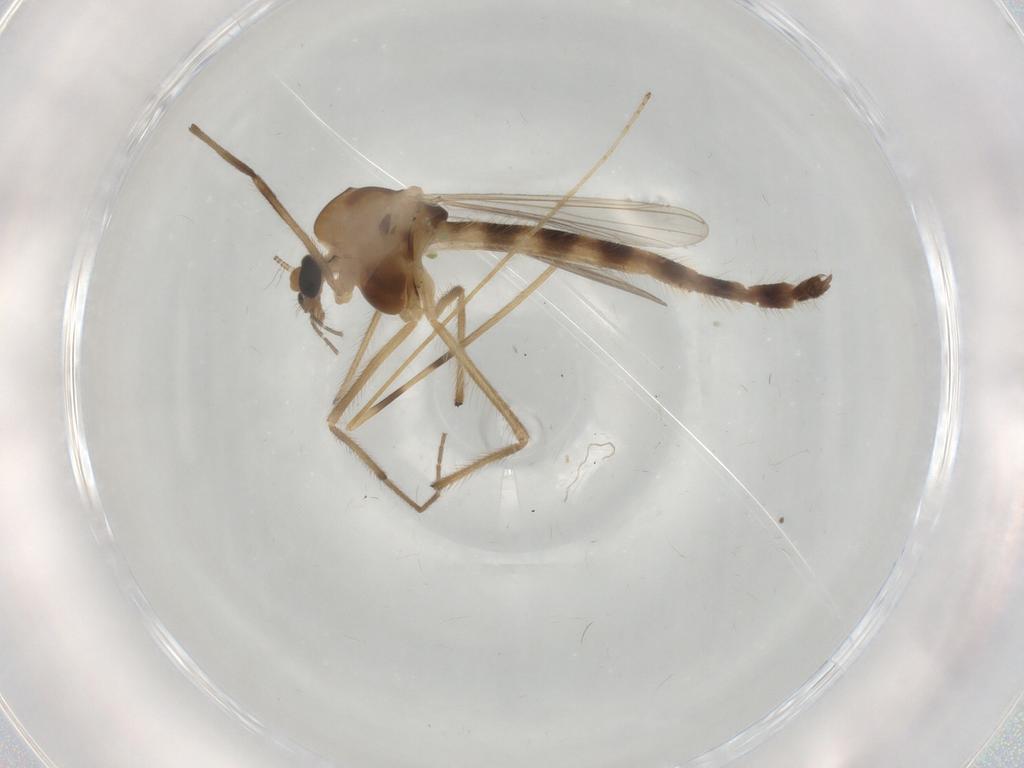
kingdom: Animalia
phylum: Arthropoda
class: Insecta
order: Diptera
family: Chironomidae
